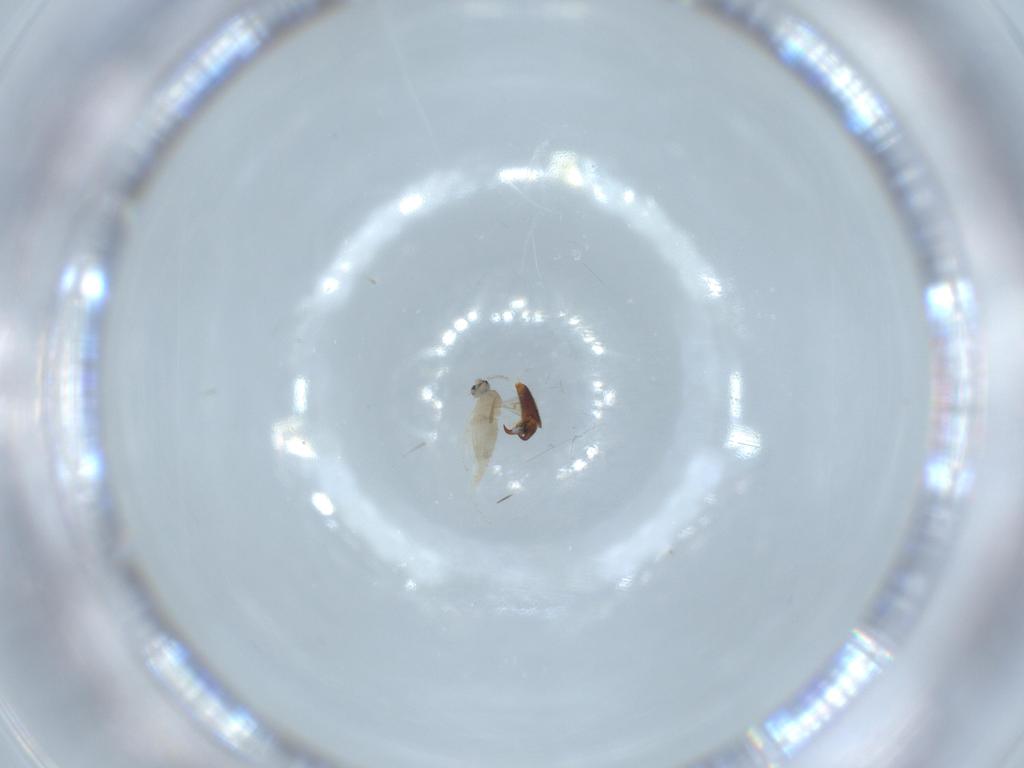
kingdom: Animalia
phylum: Arthropoda
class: Insecta
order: Diptera
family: Cecidomyiidae
